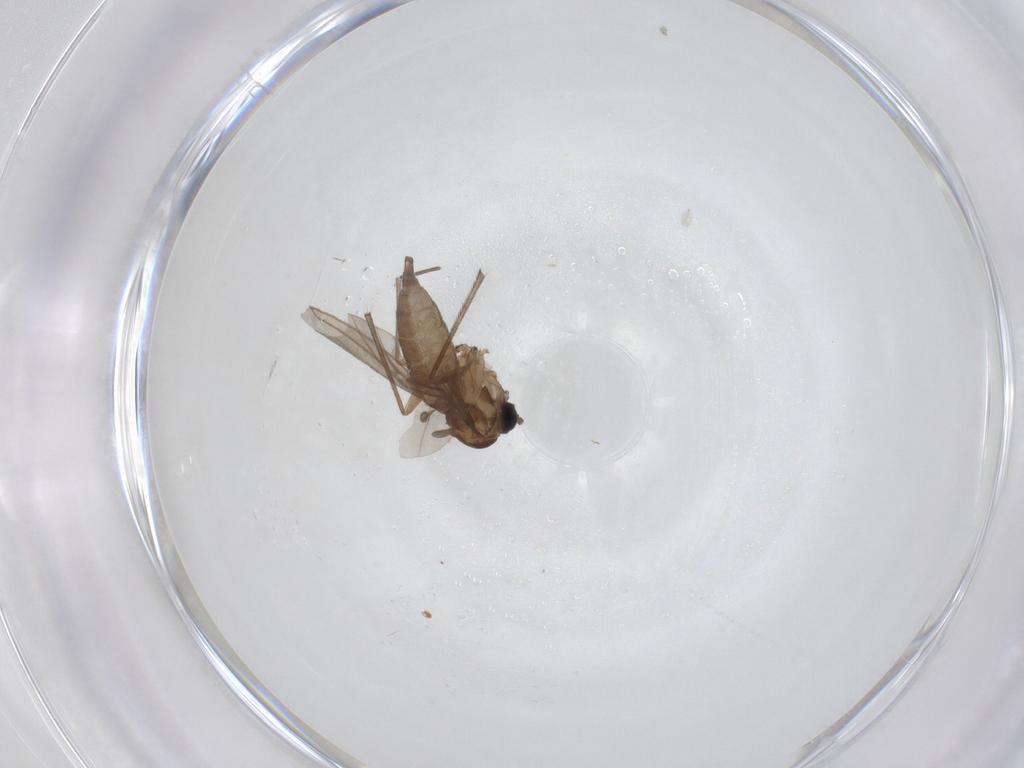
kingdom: Animalia
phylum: Arthropoda
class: Insecta
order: Diptera
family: Sciaridae
